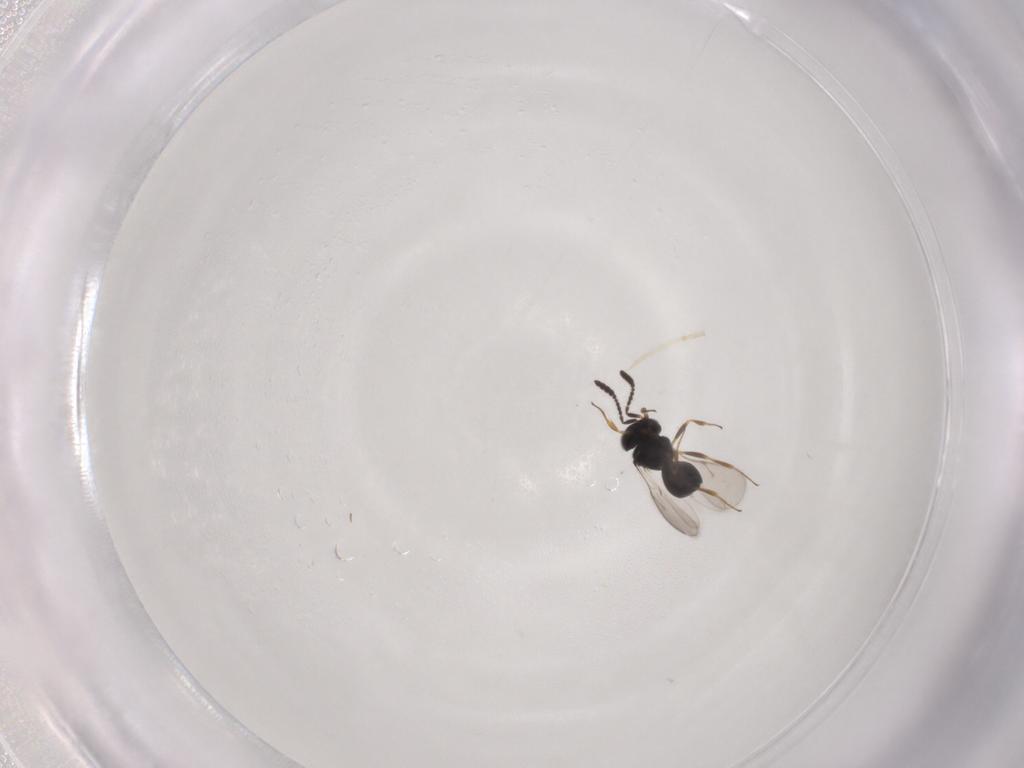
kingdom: Animalia
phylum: Arthropoda
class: Insecta
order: Hymenoptera
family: Scelionidae
